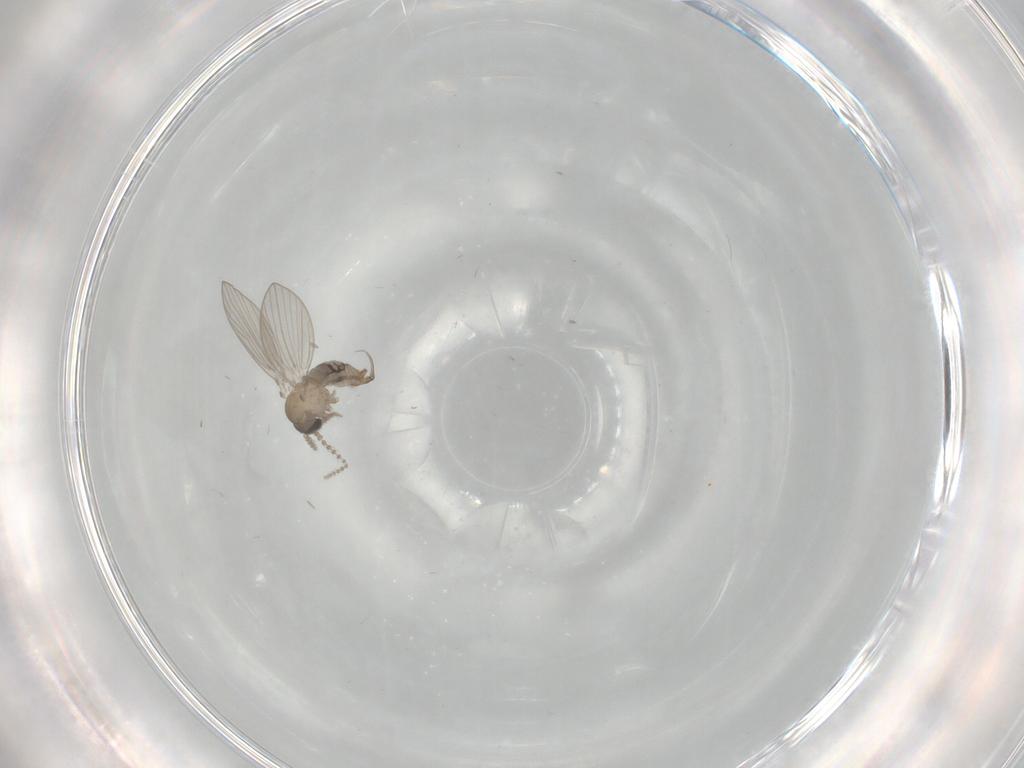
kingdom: Animalia
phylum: Arthropoda
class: Insecta
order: Diptera
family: Psychodidae
